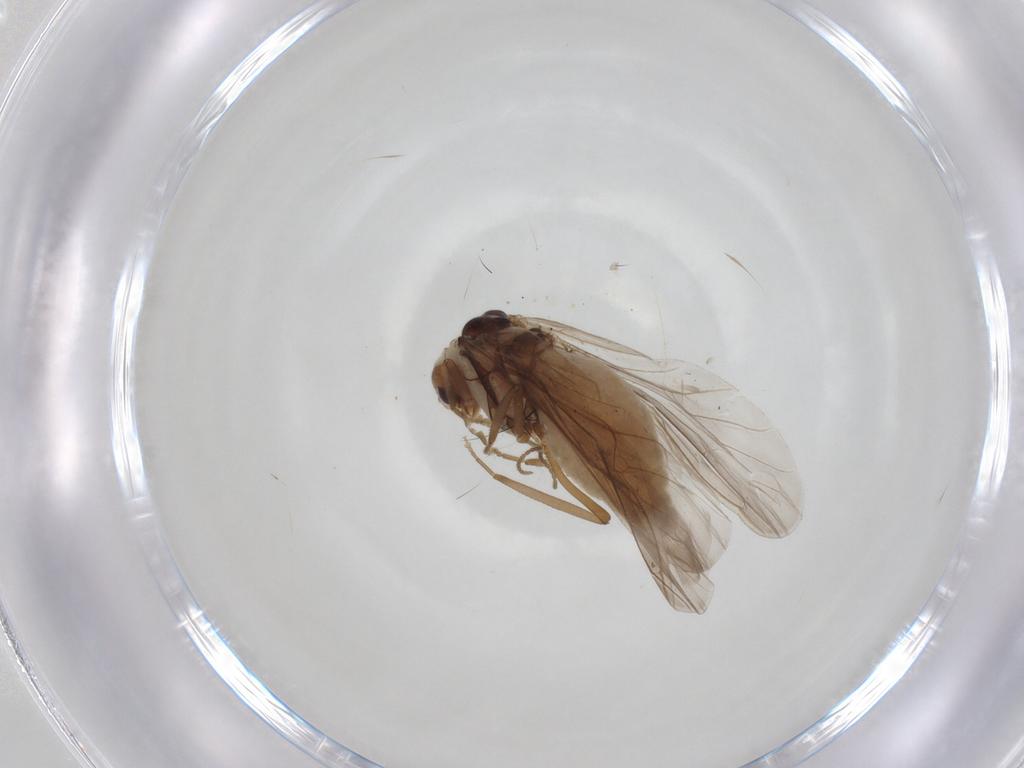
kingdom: Animalia
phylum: Arthropoda
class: Insecta
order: Neuroptera
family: Coniopterygidae
